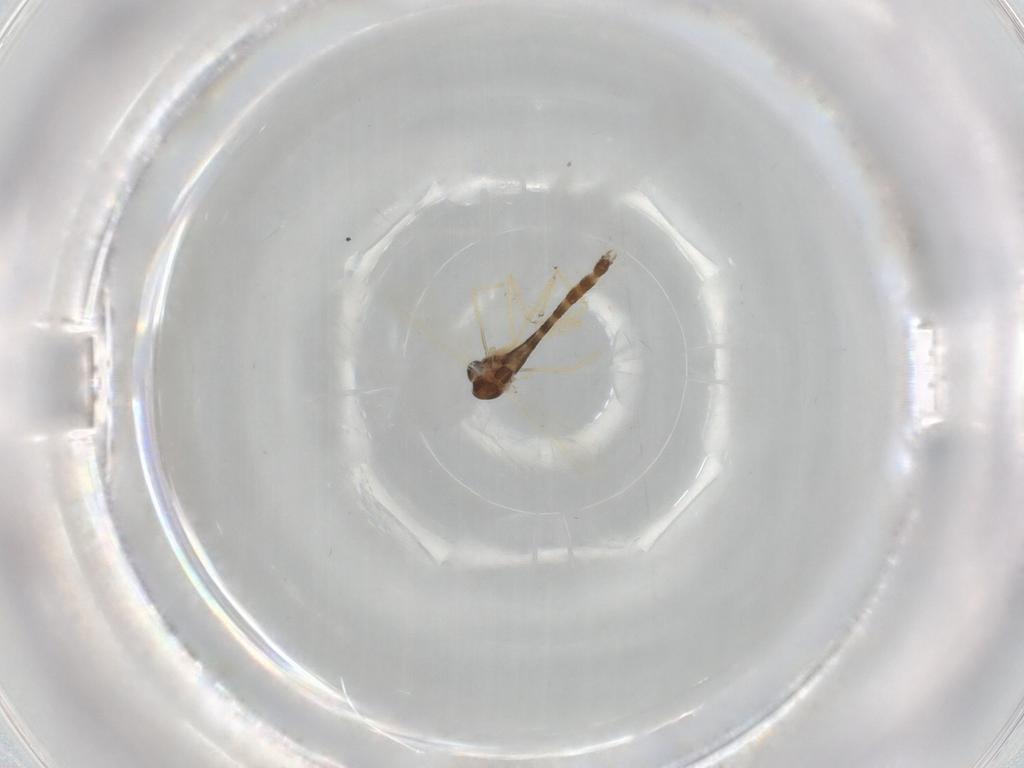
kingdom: Animalia
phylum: Arthropoda
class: Insecta
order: Diptera
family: Chironomidae
